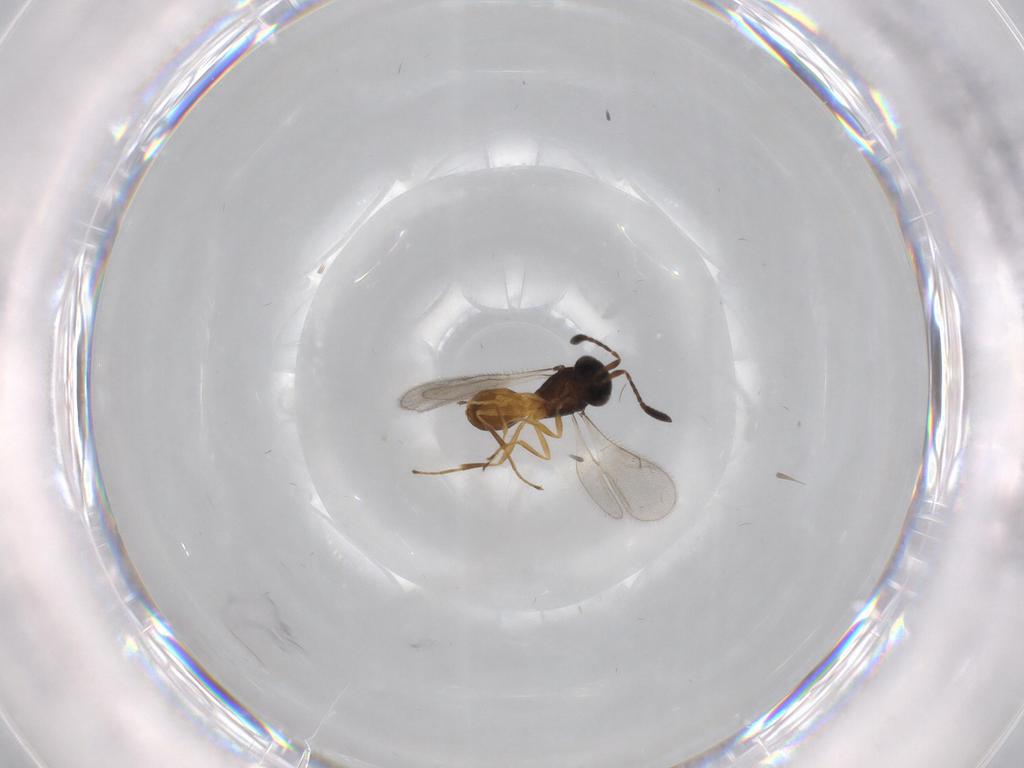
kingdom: Animalia
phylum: Arthropoda
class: Insecta
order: Hymenoptera
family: Scelionidae
